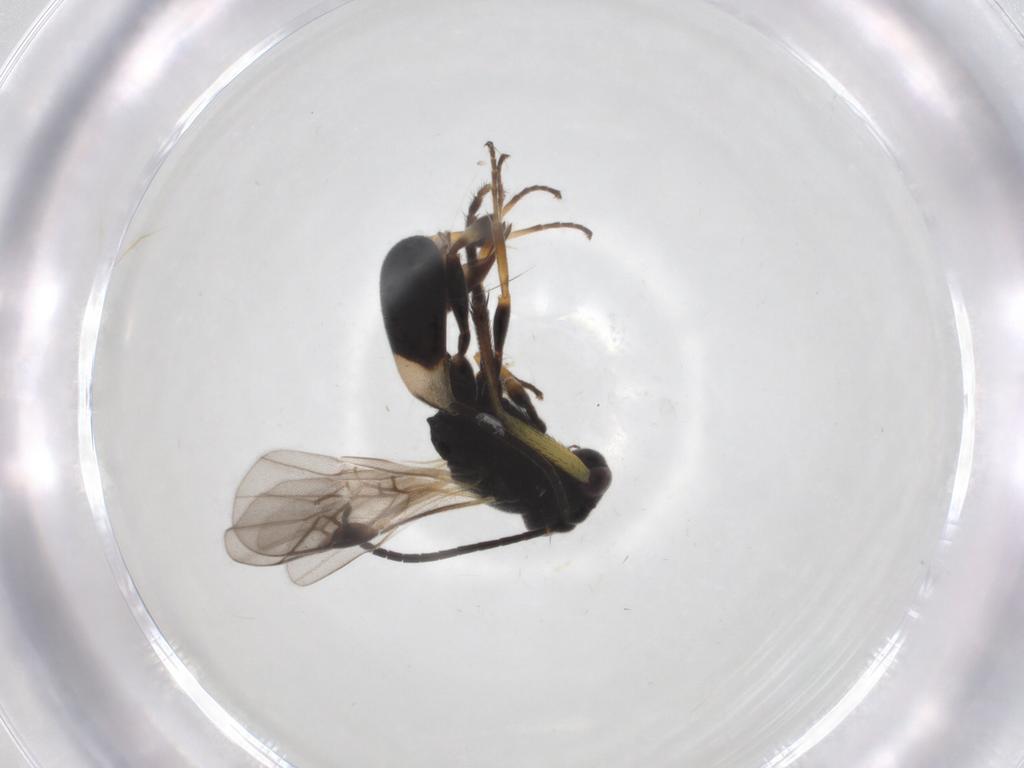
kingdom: Animalia
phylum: Arthropoda
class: Insecta
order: Hymenoptera
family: Braconidae
